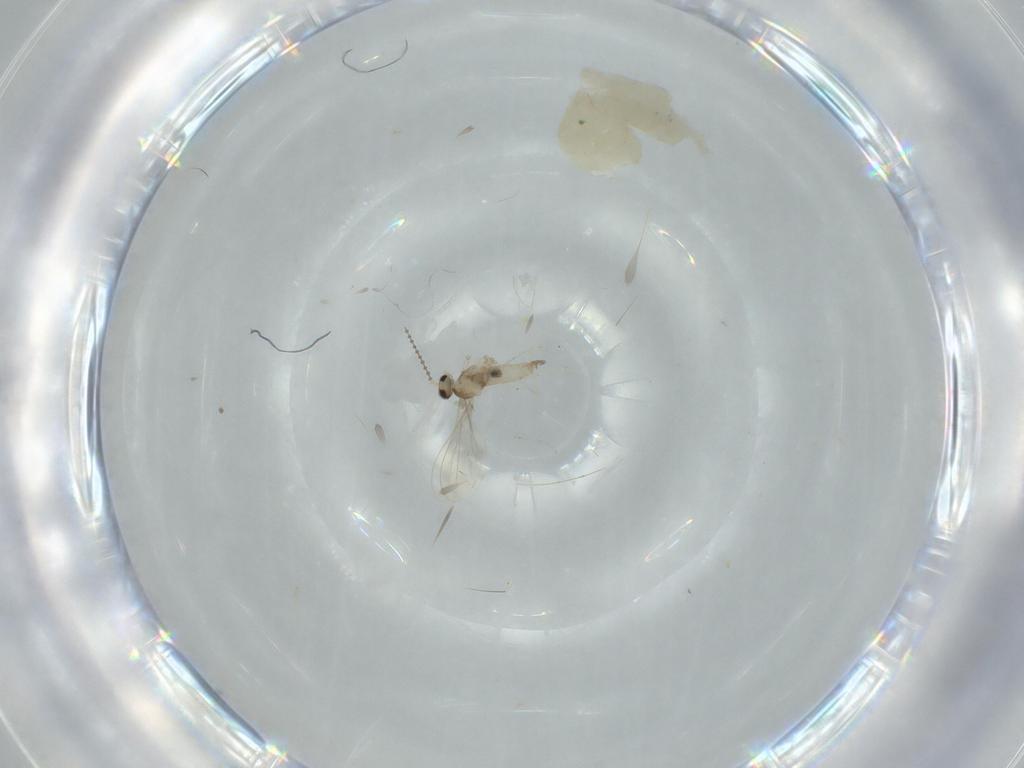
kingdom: Animalia
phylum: Arthropoda
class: Insecta
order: Diptera
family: Cecidomyiidae
